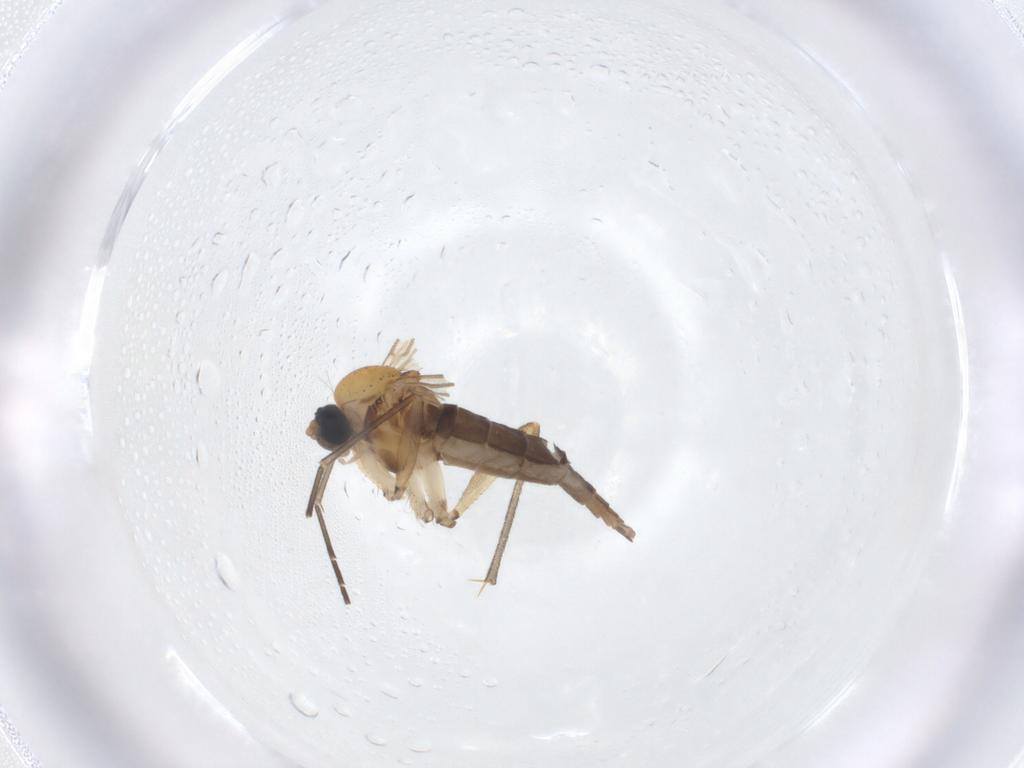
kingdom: Animalia
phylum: Arthropoda
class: Insecta
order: Diptera
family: Sciaridae
